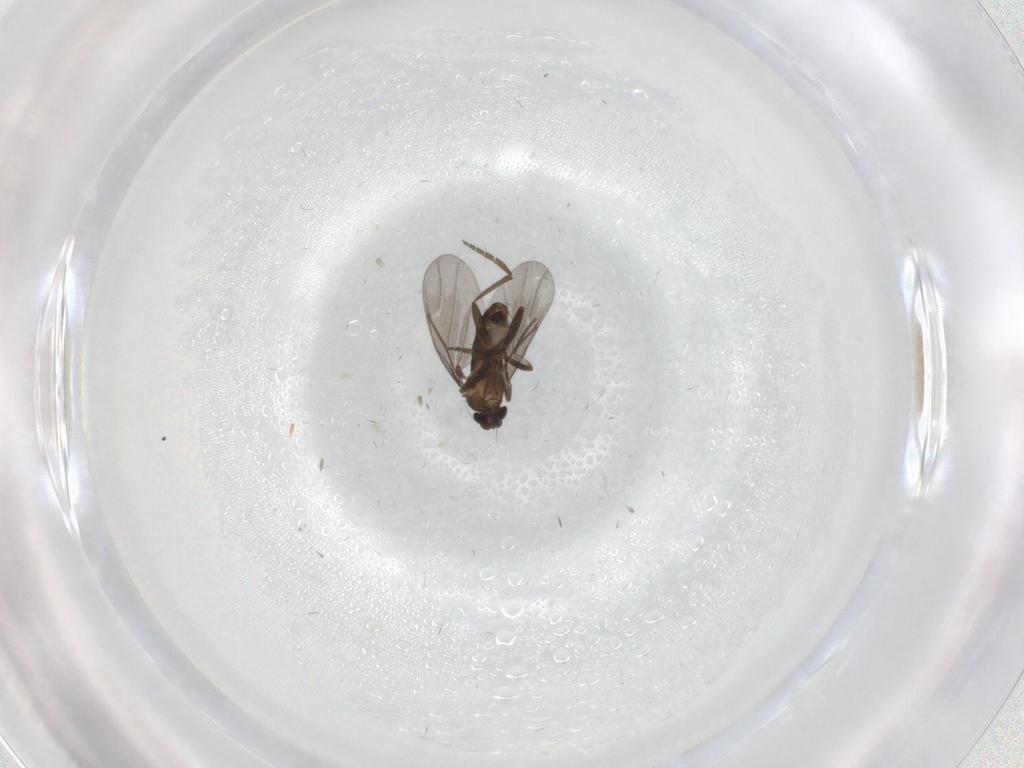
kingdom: Animalia
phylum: Arthropoda
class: Insecta
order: Diptera
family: Phoridae
